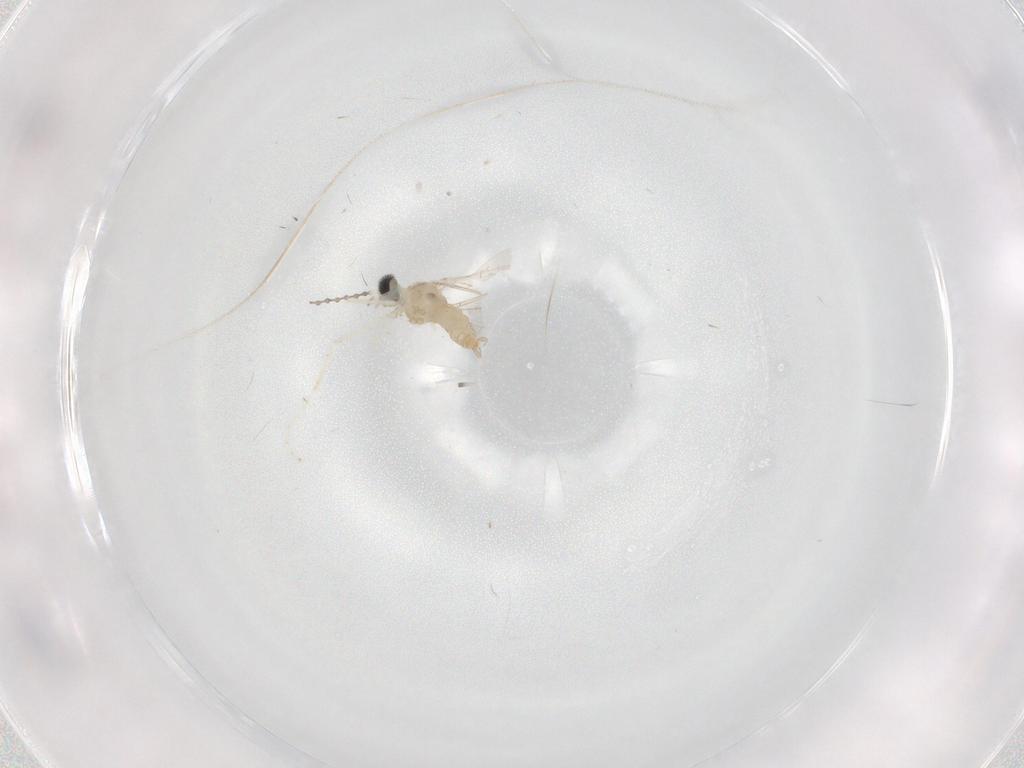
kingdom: Animalia
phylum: Arthropoda
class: Insecta
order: Diptera
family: Cecidomyiidae
